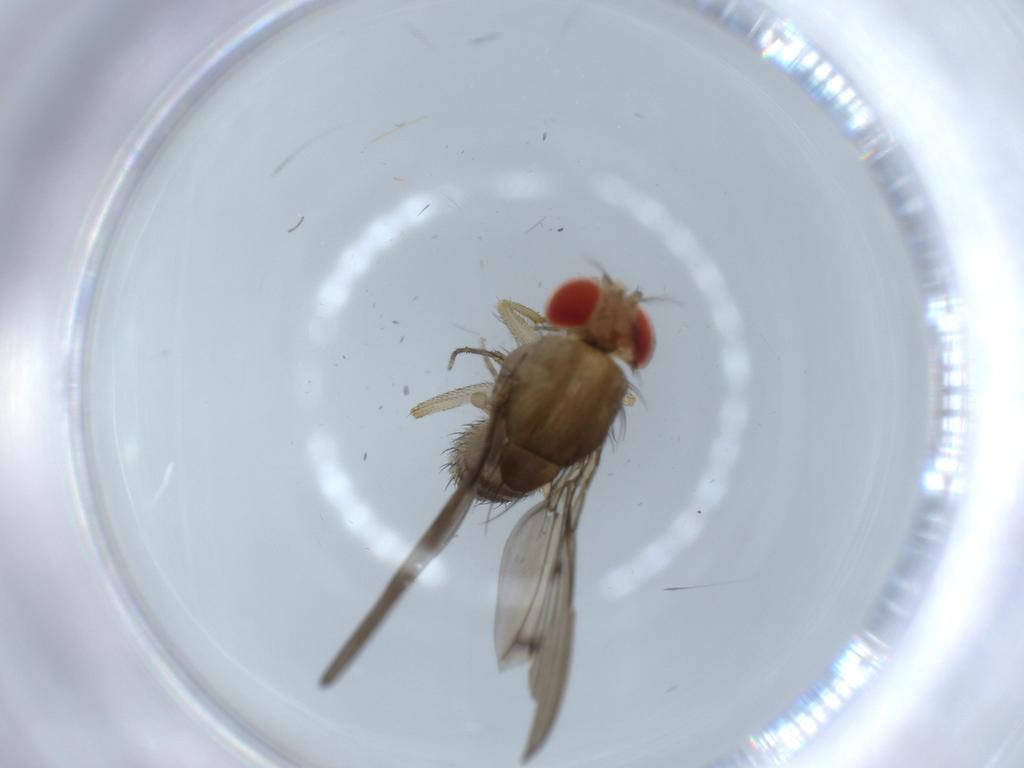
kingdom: Animalia
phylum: Arthropoda
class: Insecta
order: Diptera
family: Drosophilidae
